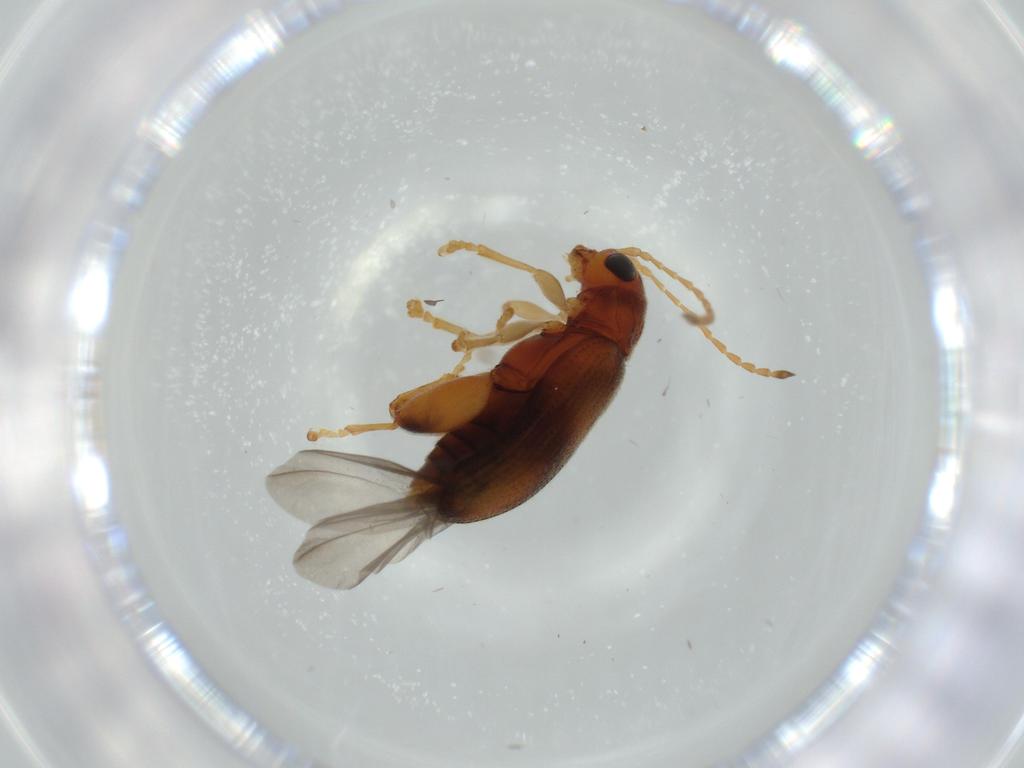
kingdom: Animalia
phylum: Arthropoda
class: Insecta
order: Coleoptera
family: Chrysomelidae
